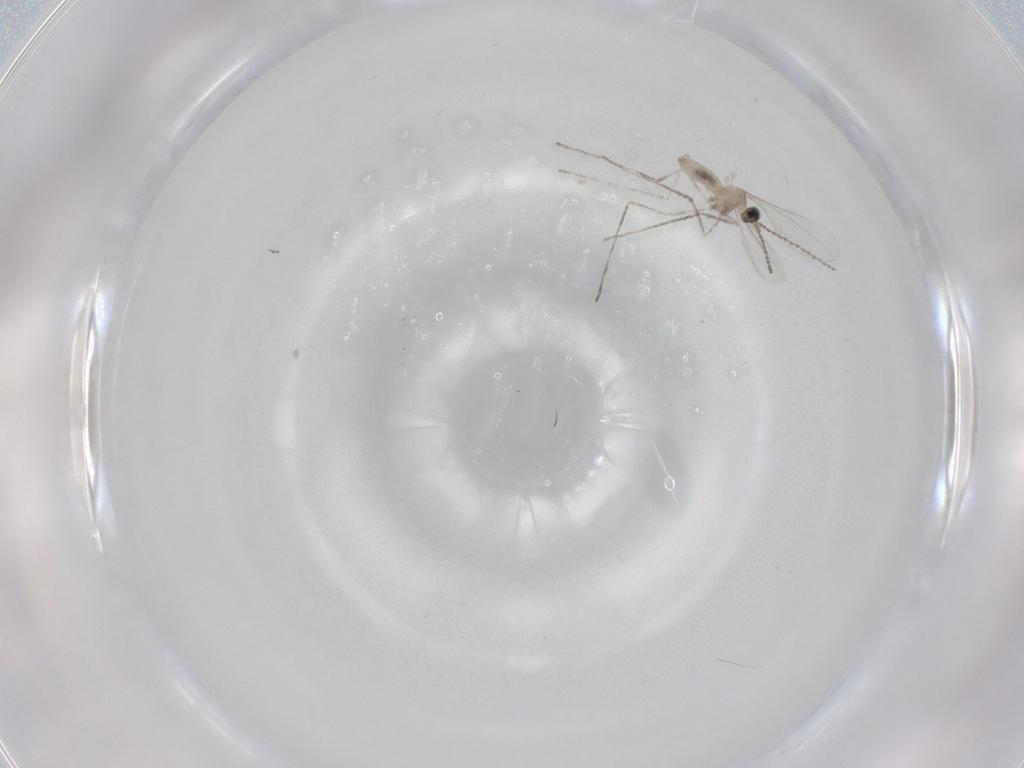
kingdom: Animalia
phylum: Arthropoda
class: Insecta
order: Diptera
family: Cecidomyiidae
